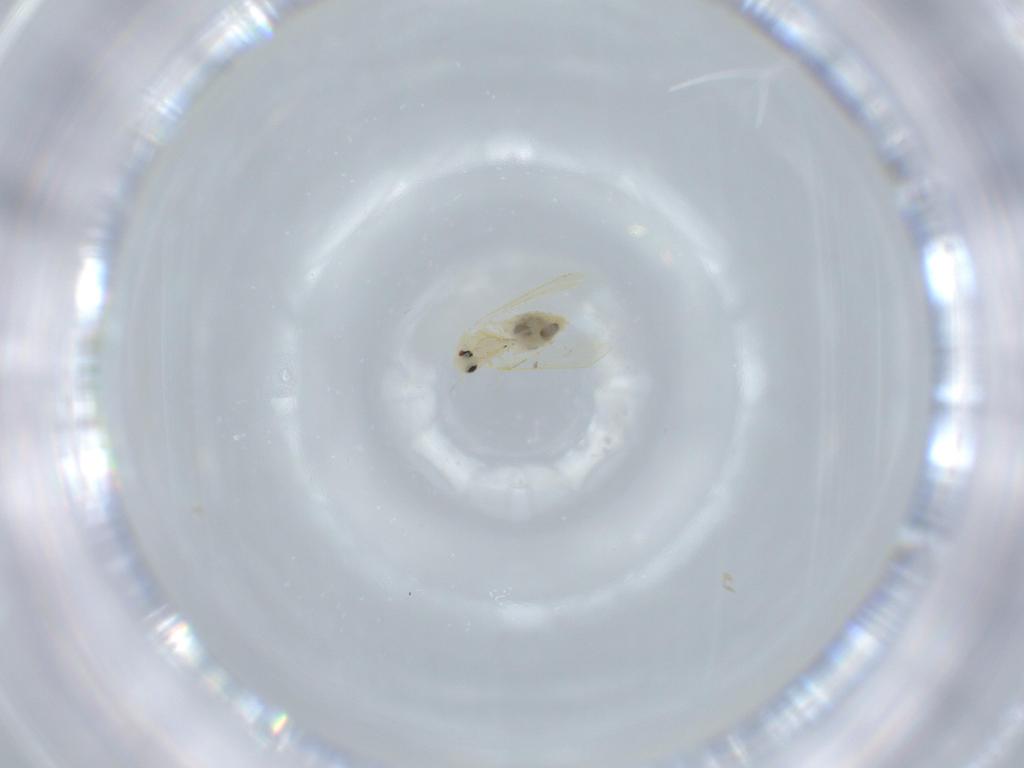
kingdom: Animalia
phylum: Arthropoda
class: Insecta
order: Hemiptera
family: Aleyrodidae
